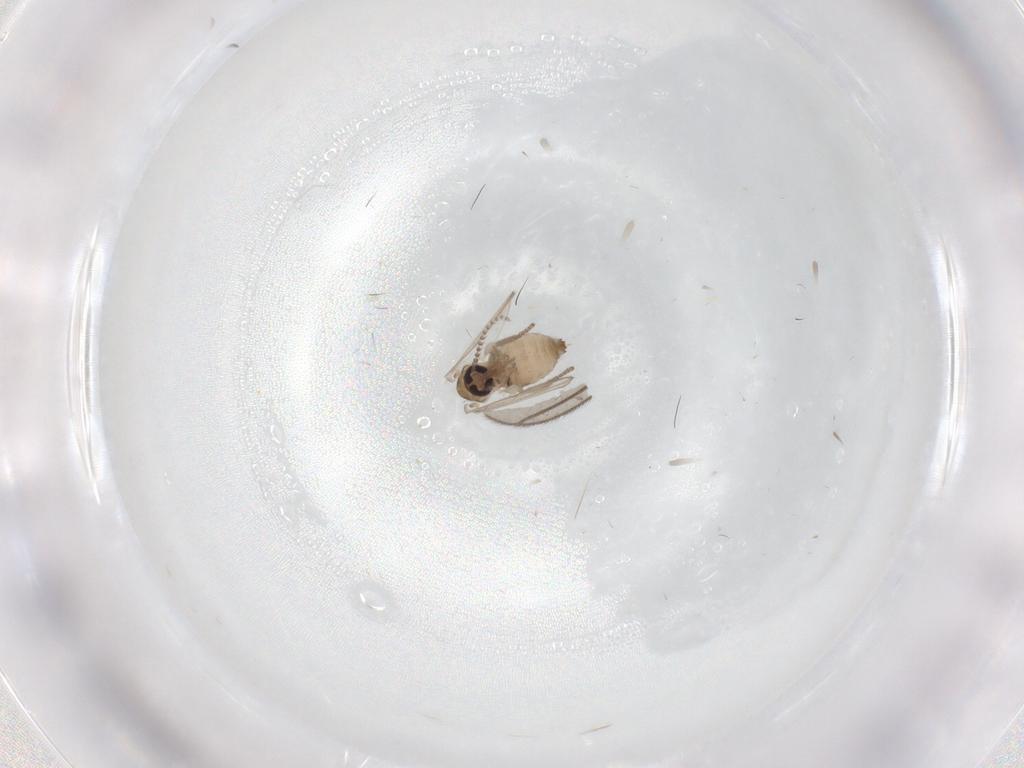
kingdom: Animalia
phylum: Arthropoda
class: Insecta
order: Diptera
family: Psychodidae
